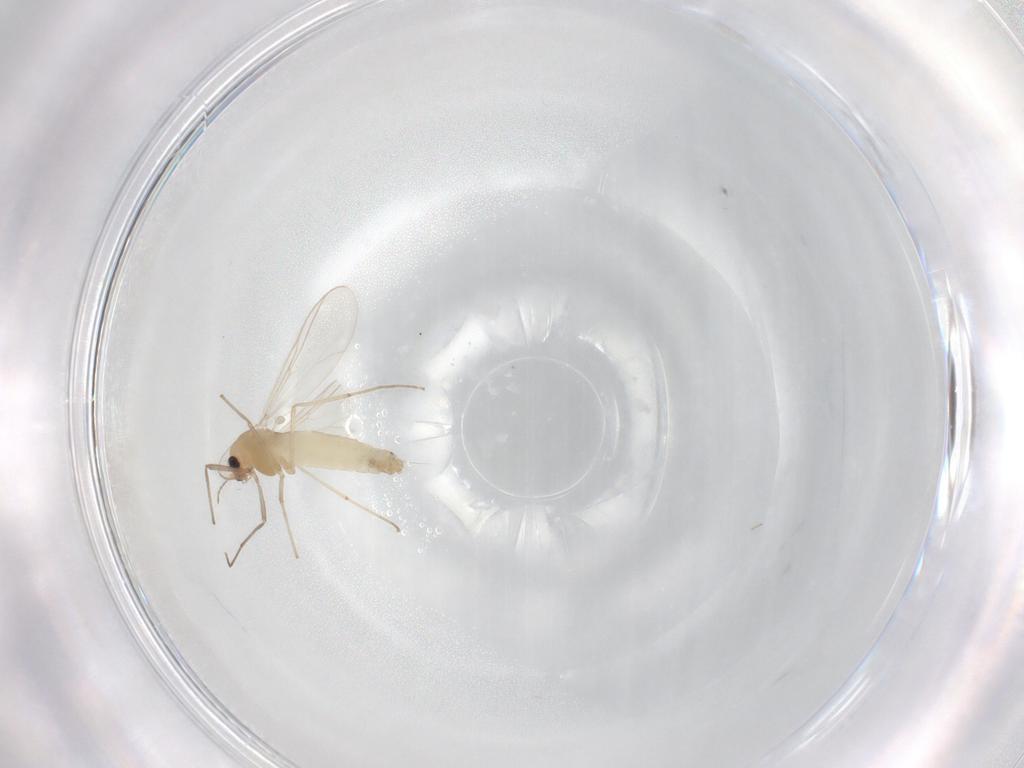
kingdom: Animalia
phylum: Arthropoda
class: Insecta
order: Diptera
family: Chironomidae
